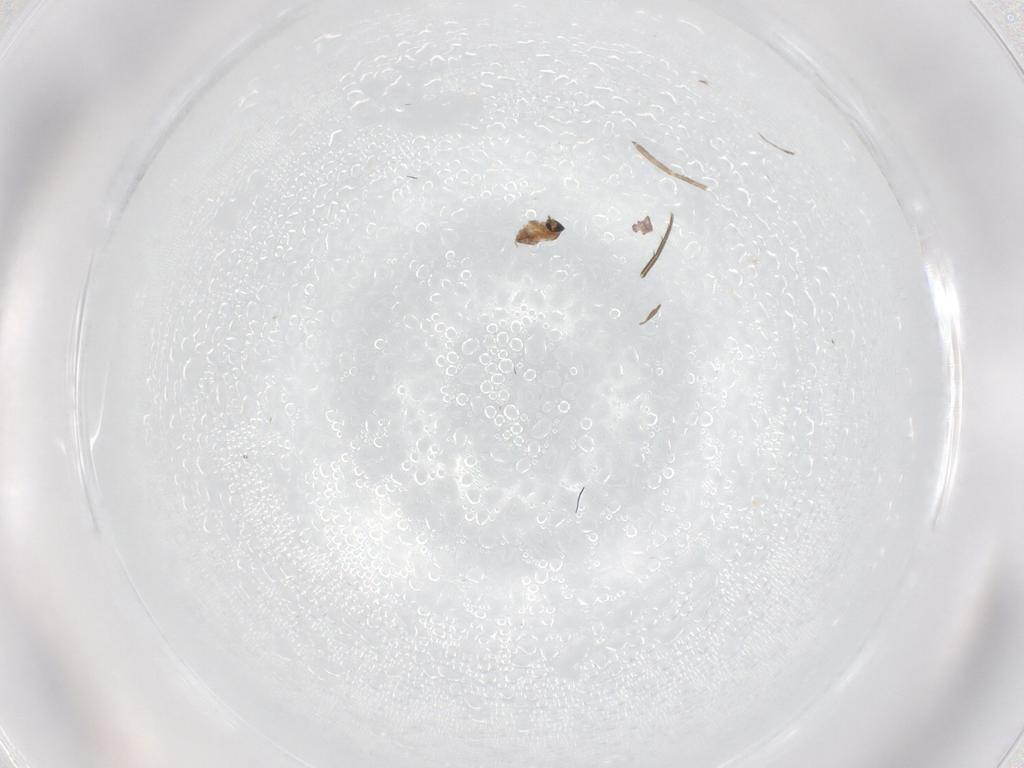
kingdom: Animalia
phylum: Arthropoda
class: Insecta
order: Diptera
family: Phoridae
